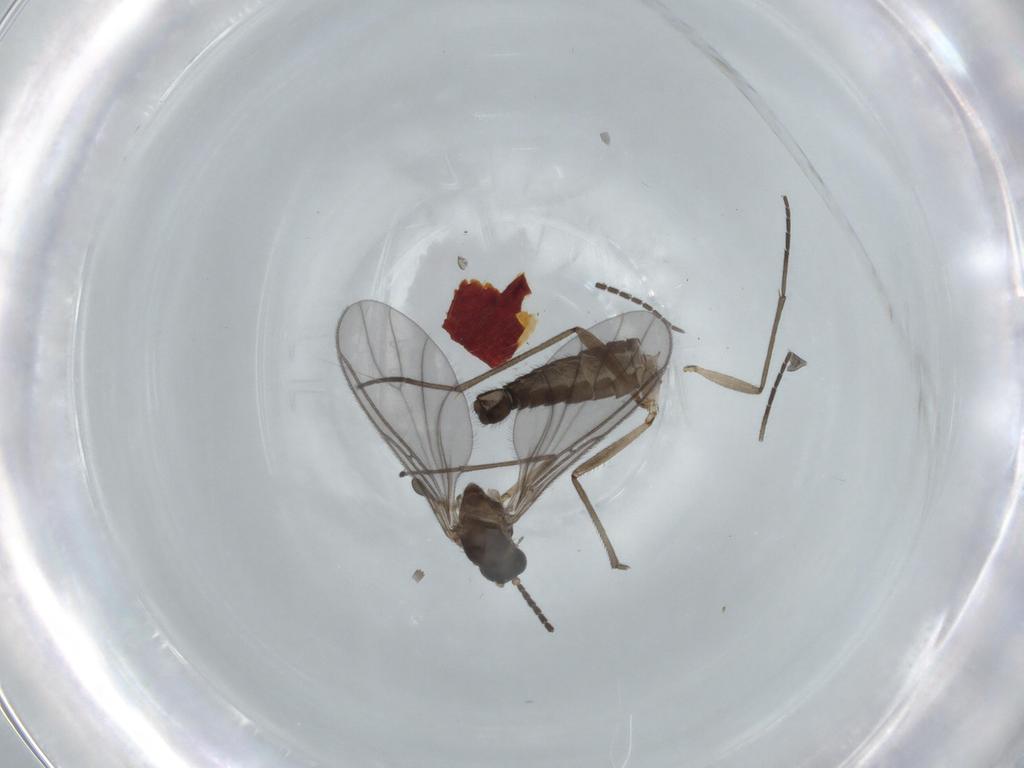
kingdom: Animalia
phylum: Arthropoda
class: Insecta
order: Diptera
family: Sciaridae
